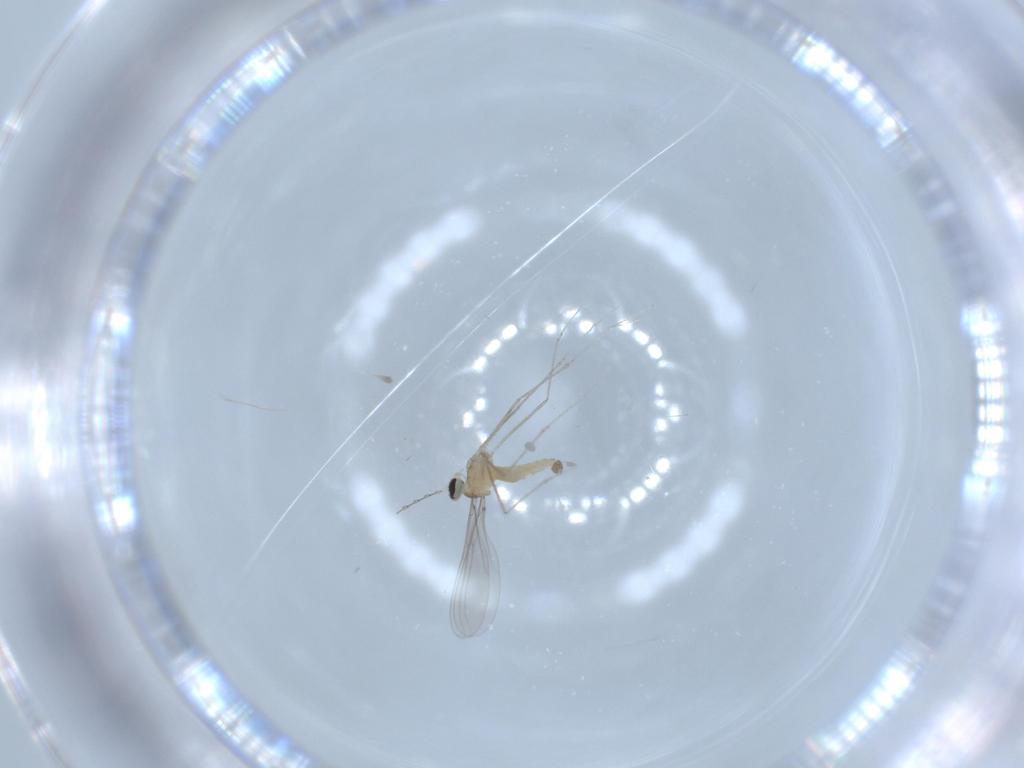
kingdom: Animalia
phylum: Arthropoda
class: Insecta
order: Diptera
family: Cecidomyiidae
